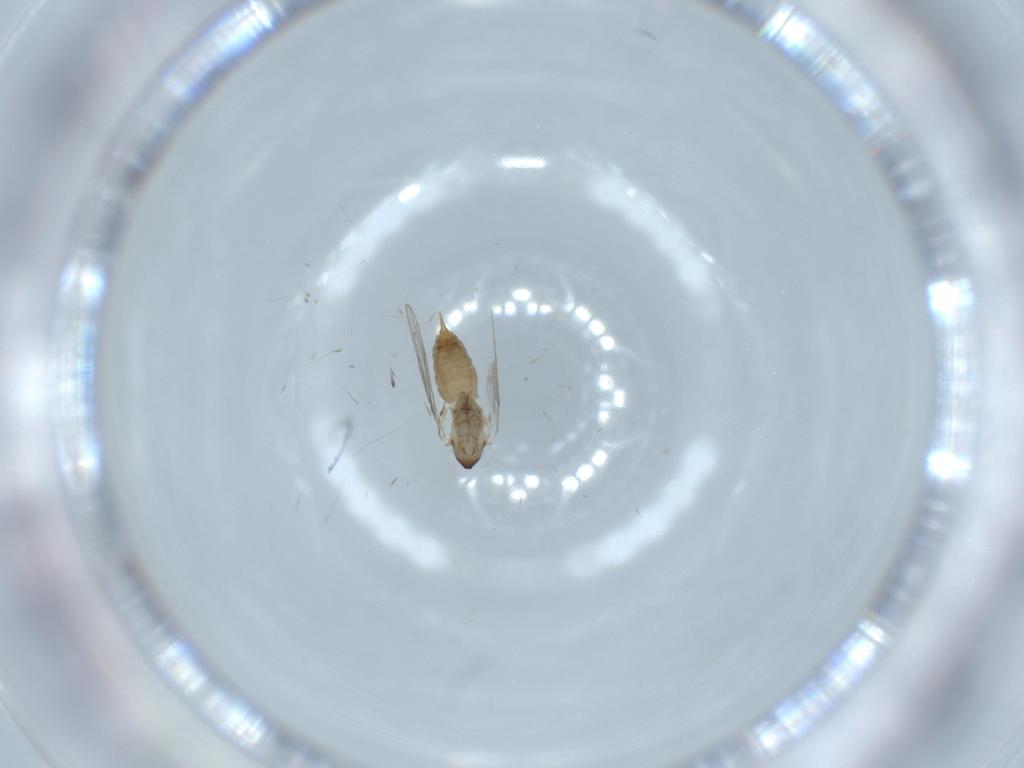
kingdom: Animalia
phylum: Arthropoda
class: Insecta
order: Diptera
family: Psychodidae
